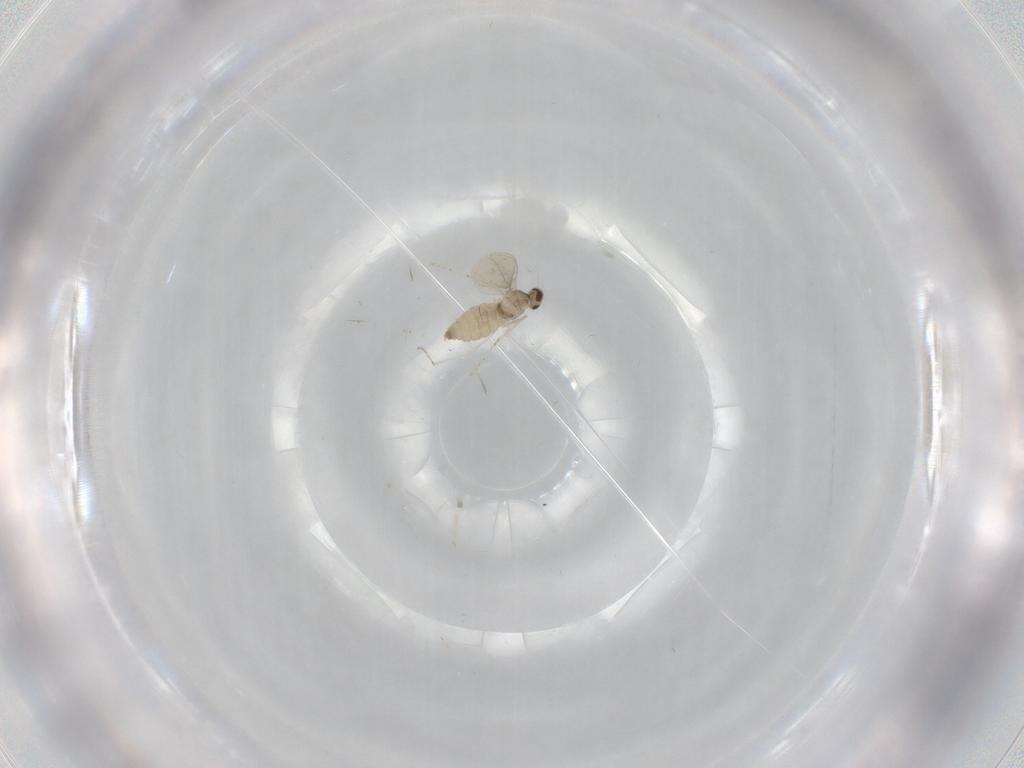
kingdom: Animalia
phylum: Arthropoda
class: Insecta
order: Diptera
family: Cecidomyiidae
